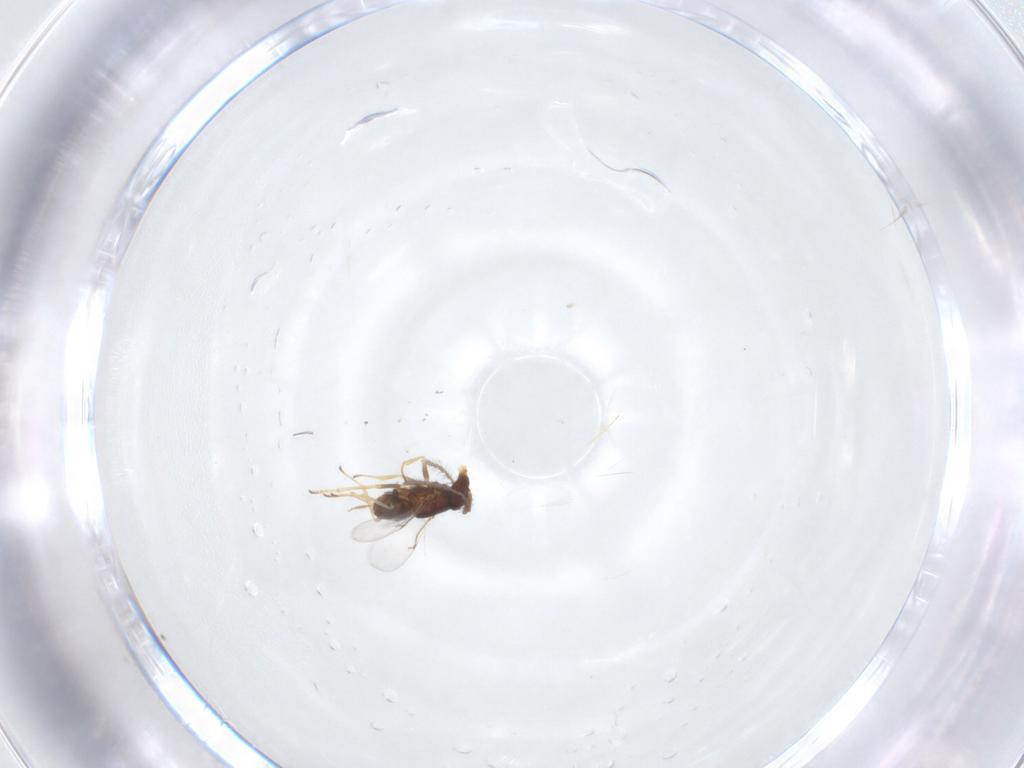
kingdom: Animalia
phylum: Arthropoda
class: Insecta
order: Hymenoptera
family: Encyrtidae
